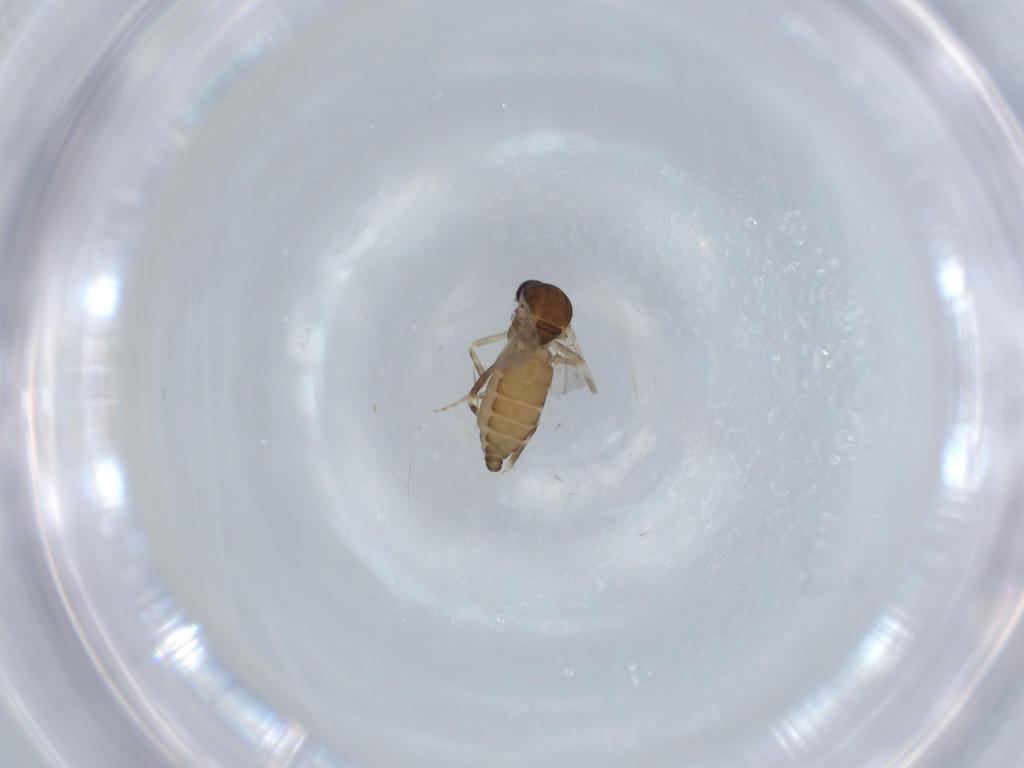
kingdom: Animalia
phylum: Arthropoda
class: Insecta
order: Diptera
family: Ceratopogonidae
